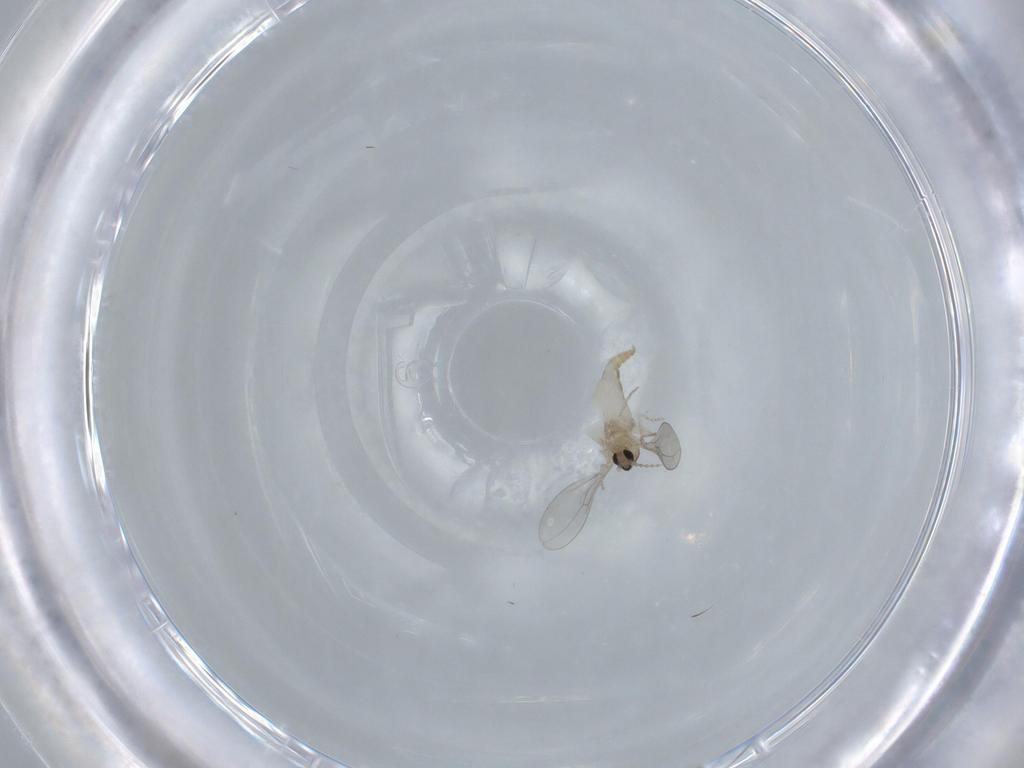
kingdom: Animalia
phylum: Arthropoda
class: Insecta
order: Diptera
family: Cecidomyiidae
